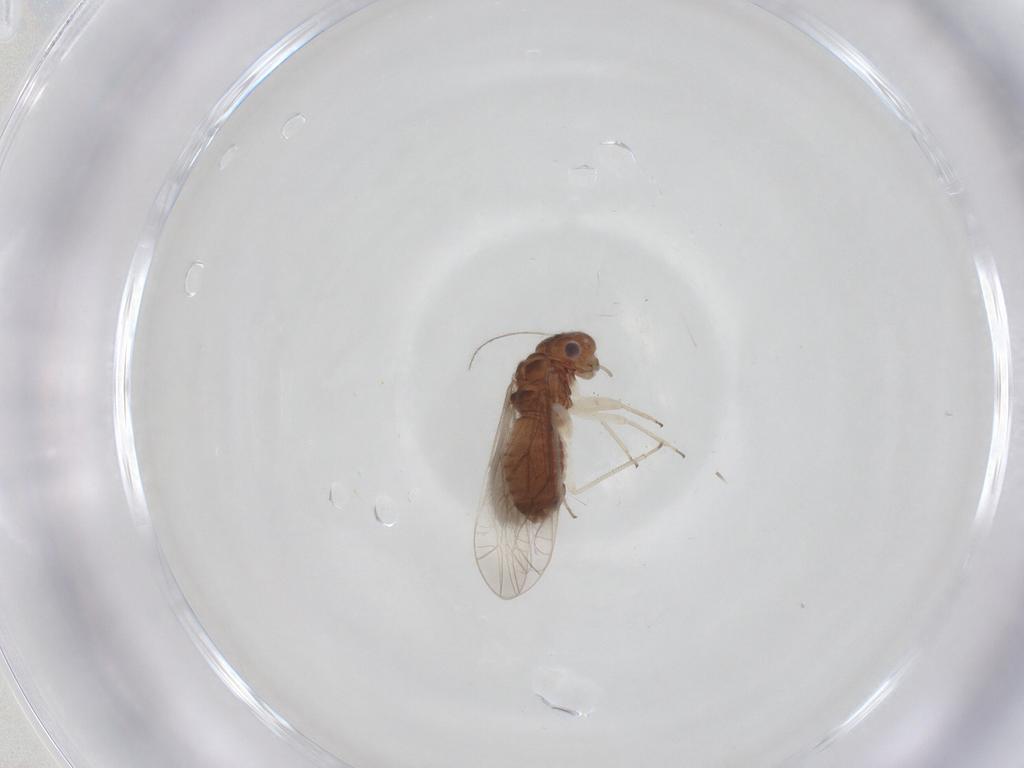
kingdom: Animalia
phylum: Arthropoda
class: Insecta
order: Psocodea
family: Caeciliusidae
